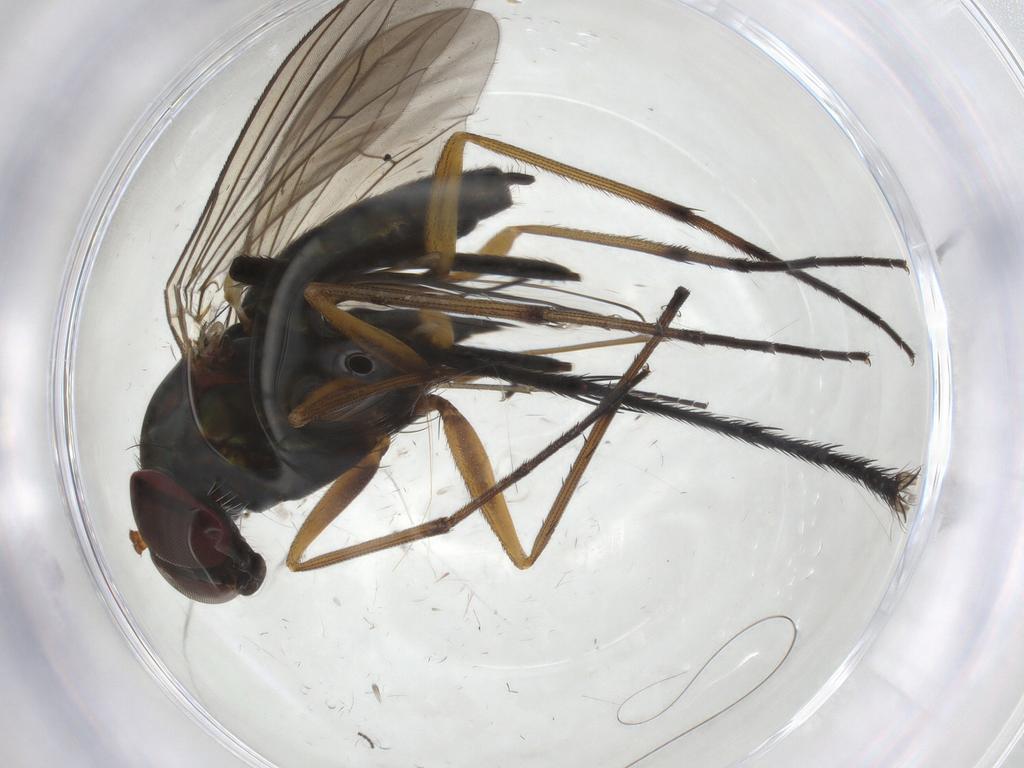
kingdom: Animalia
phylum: Arthropoda
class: Insecta
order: Diptera
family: Sciaridae
